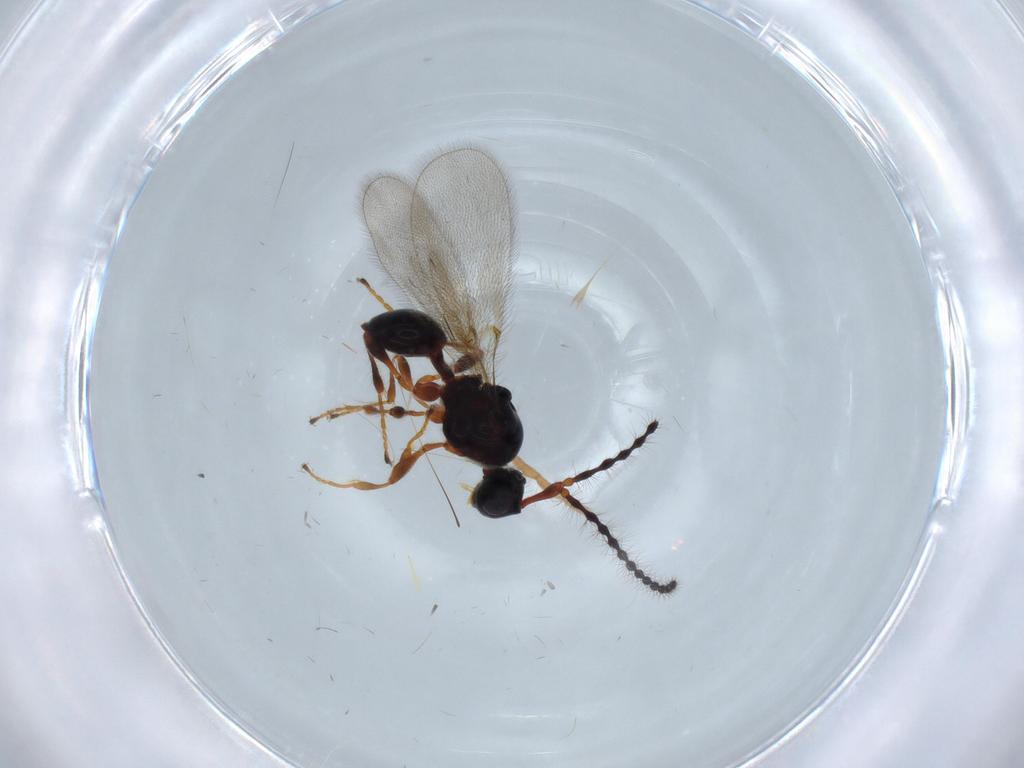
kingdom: Animalia
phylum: Arthropoda
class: Insecta
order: Hymenoptera
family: Diapriidae
